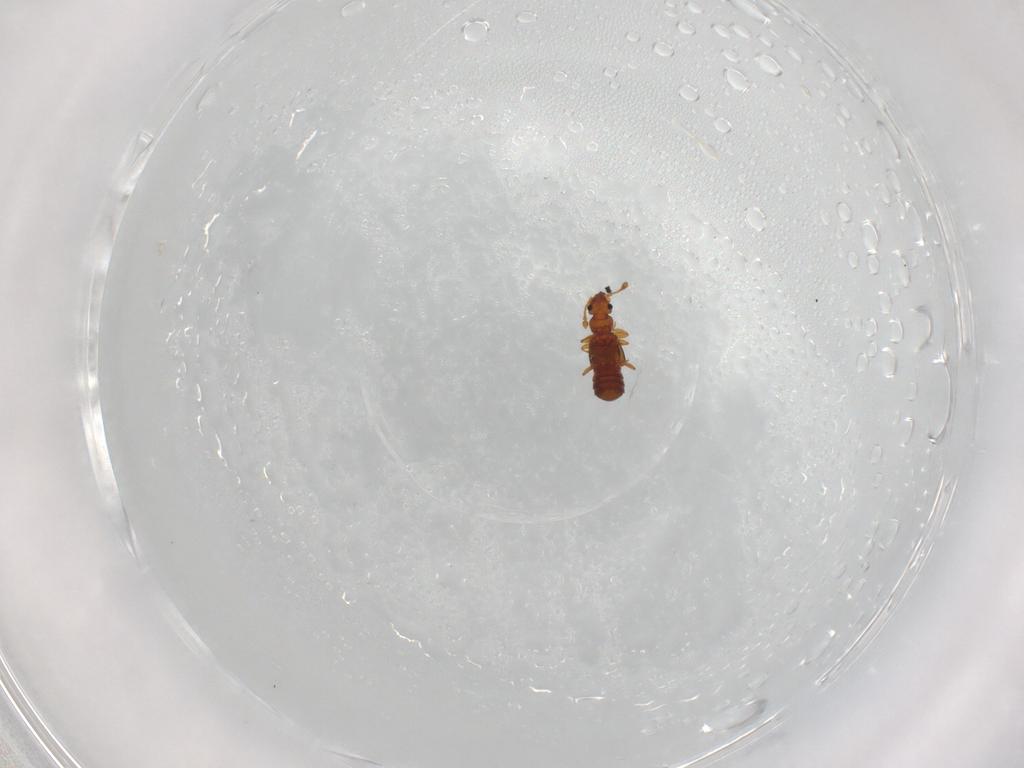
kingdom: Animalia
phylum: Arthropoda
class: Insecta
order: Coleoptera
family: Staphylinidae
